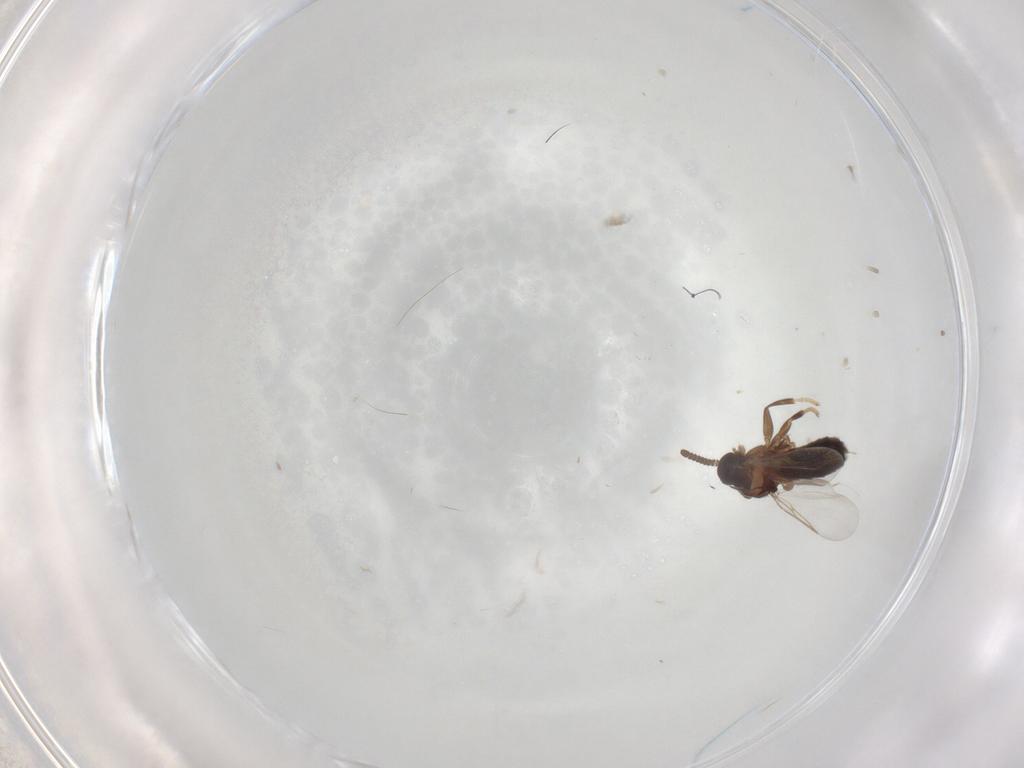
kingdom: Animalia
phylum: Arthropoda
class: Insecta
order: Diptera
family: Scatopsidae
